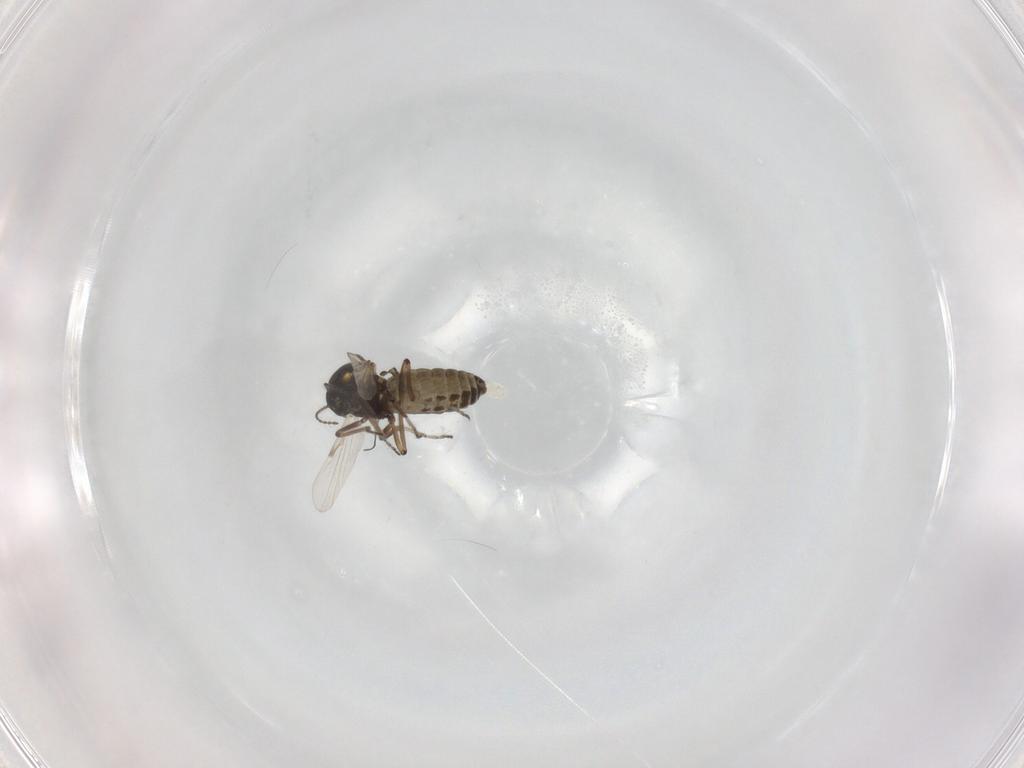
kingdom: Animalia
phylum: Arthropoda
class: Insecta
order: Diptera
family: Ceratopogonidae
